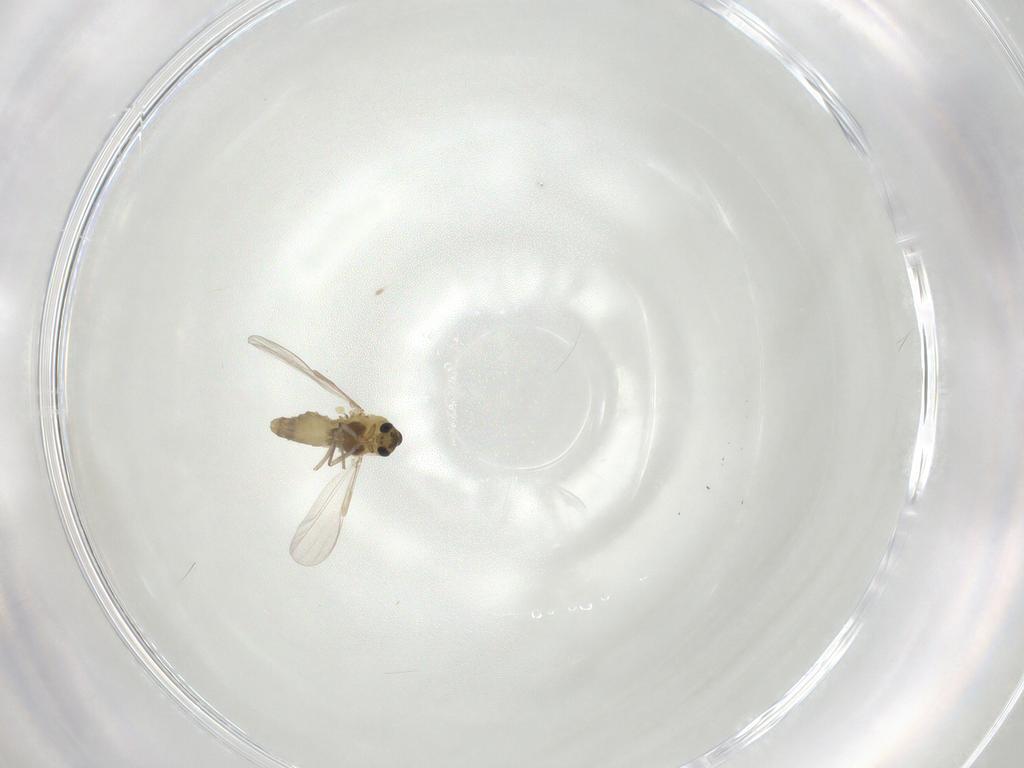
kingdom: Animalia
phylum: Arthropoda
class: Insecta
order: Diptera
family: Chironomidae
